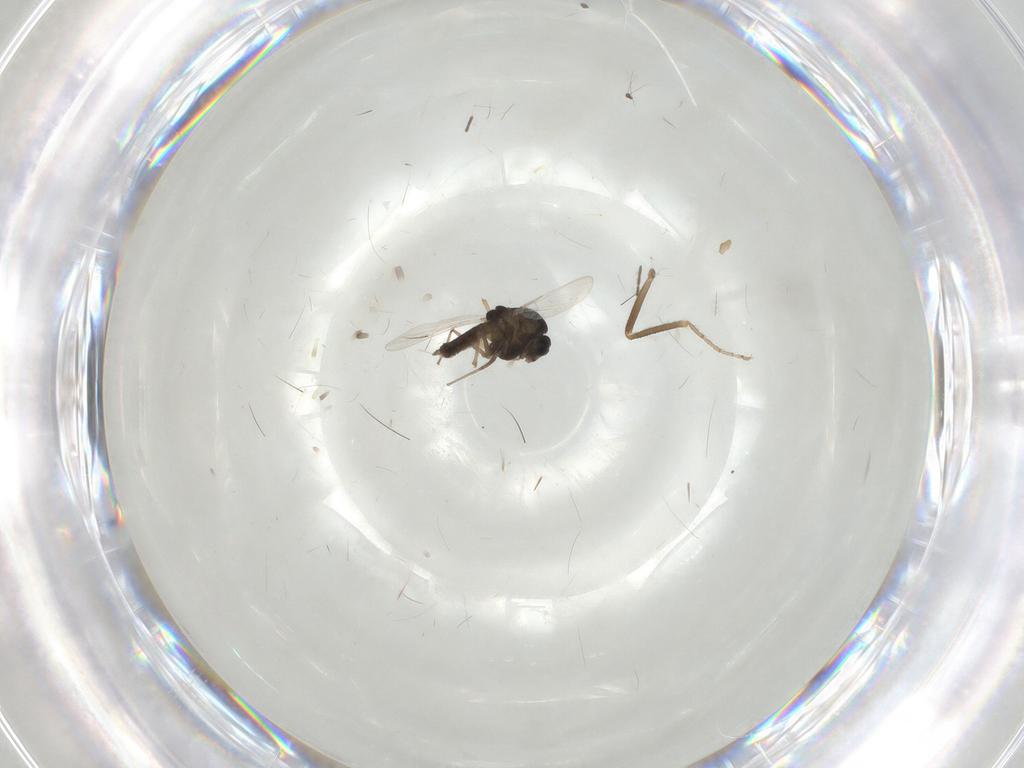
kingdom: Animalia
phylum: Arthropoda
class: Insecta
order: Diptera
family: Chironomidae
